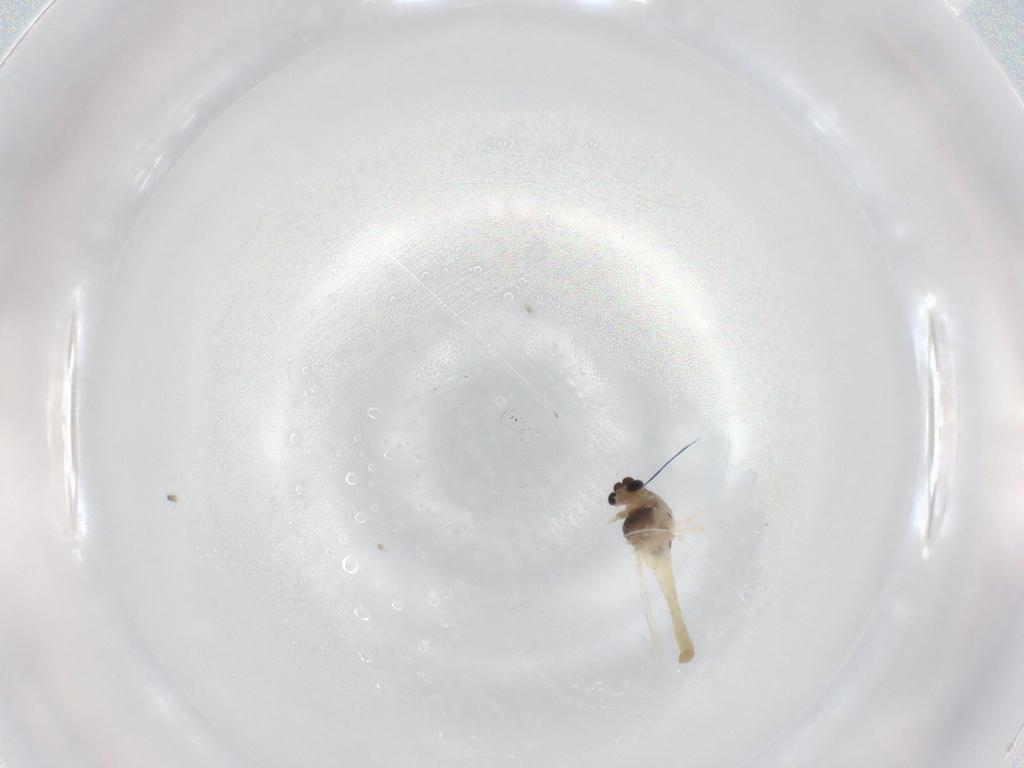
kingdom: Animalia
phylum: Arthropoda
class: Insecta
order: Diptera
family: Chironomidae
